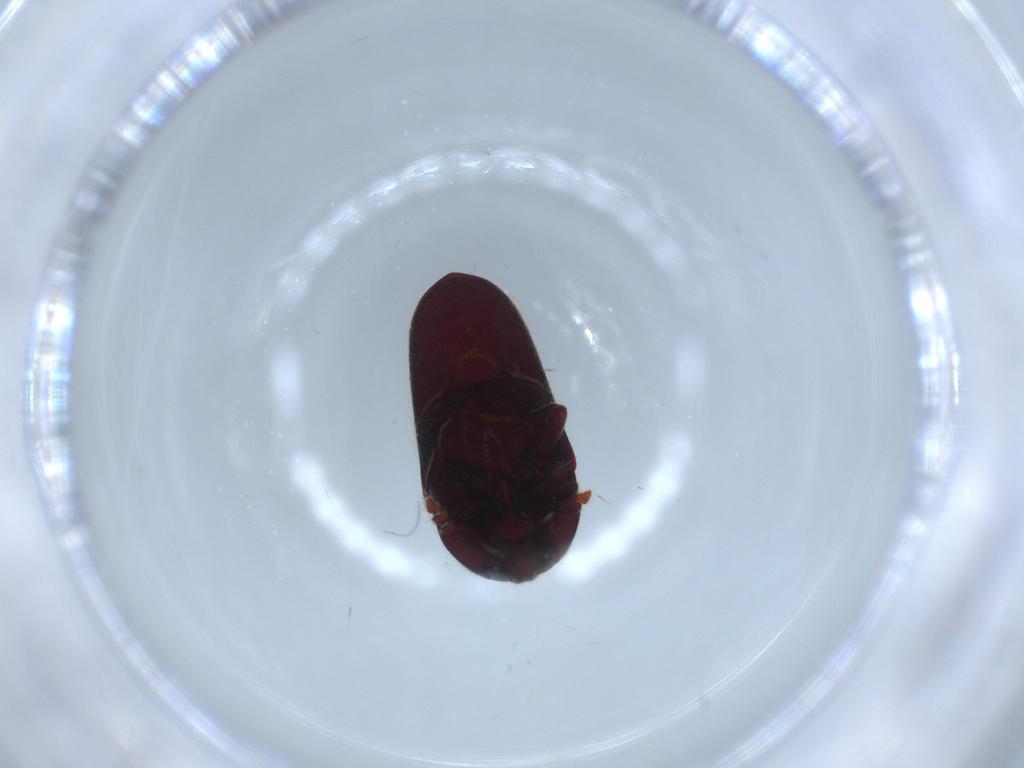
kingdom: Animalia
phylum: Arthropoda
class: Insecta
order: Coleoptera
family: Throscidae
